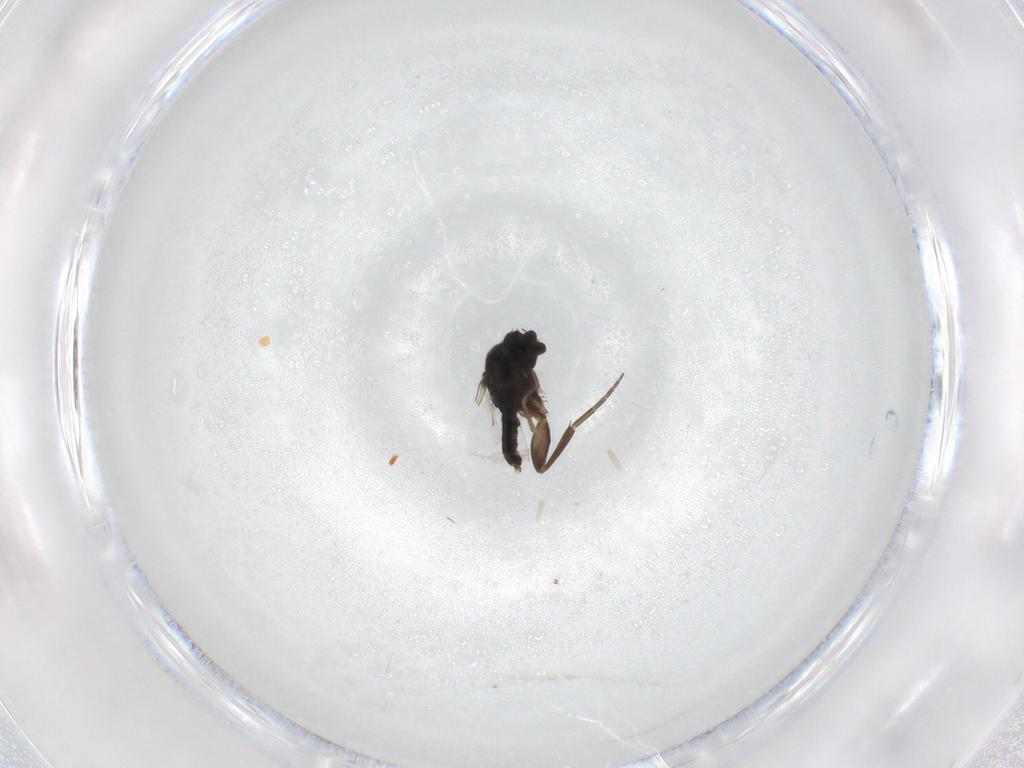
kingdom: Animalia
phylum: Arthropoda
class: Insecta
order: Diptera
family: Phoridae
